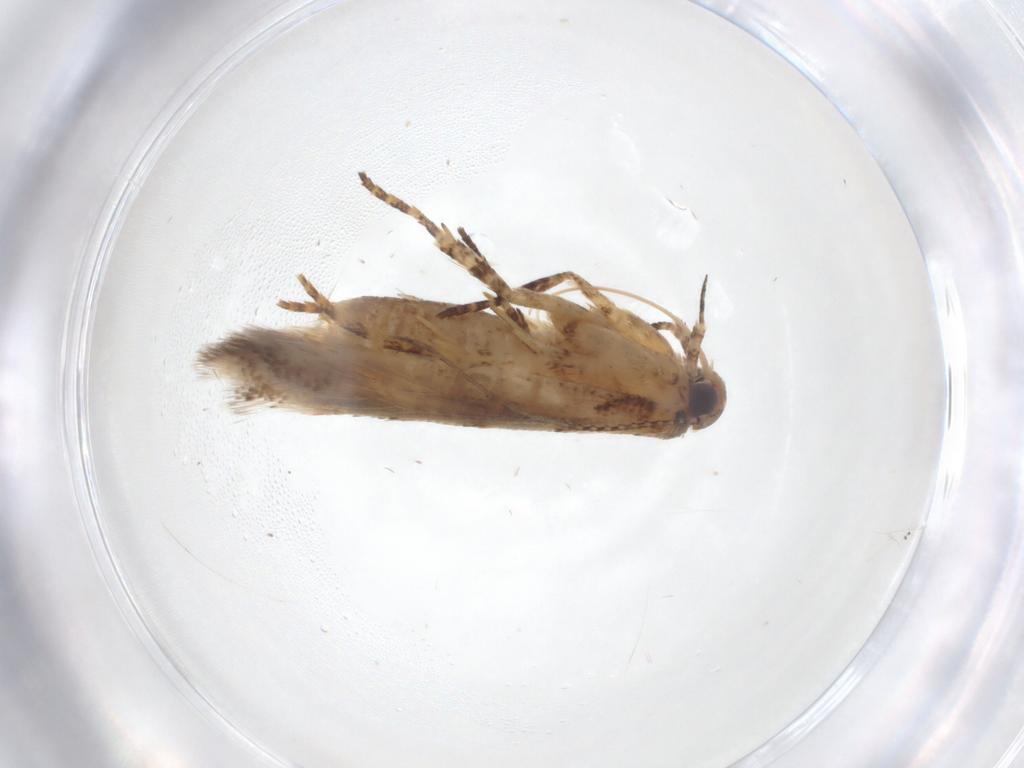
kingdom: Animalia
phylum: Arthropoda
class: Insecta
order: Lepidoptera
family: Gelechiidae
